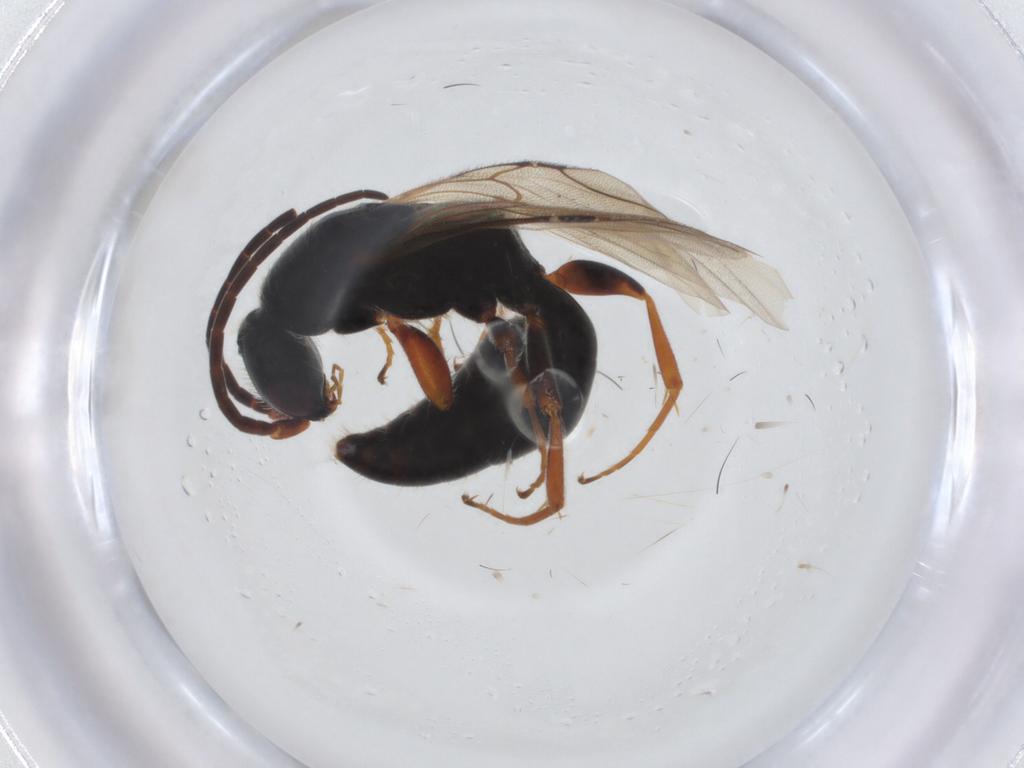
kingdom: Animalia
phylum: Arthropoda
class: Insecta
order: Hymenoptera
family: Bethylidae
